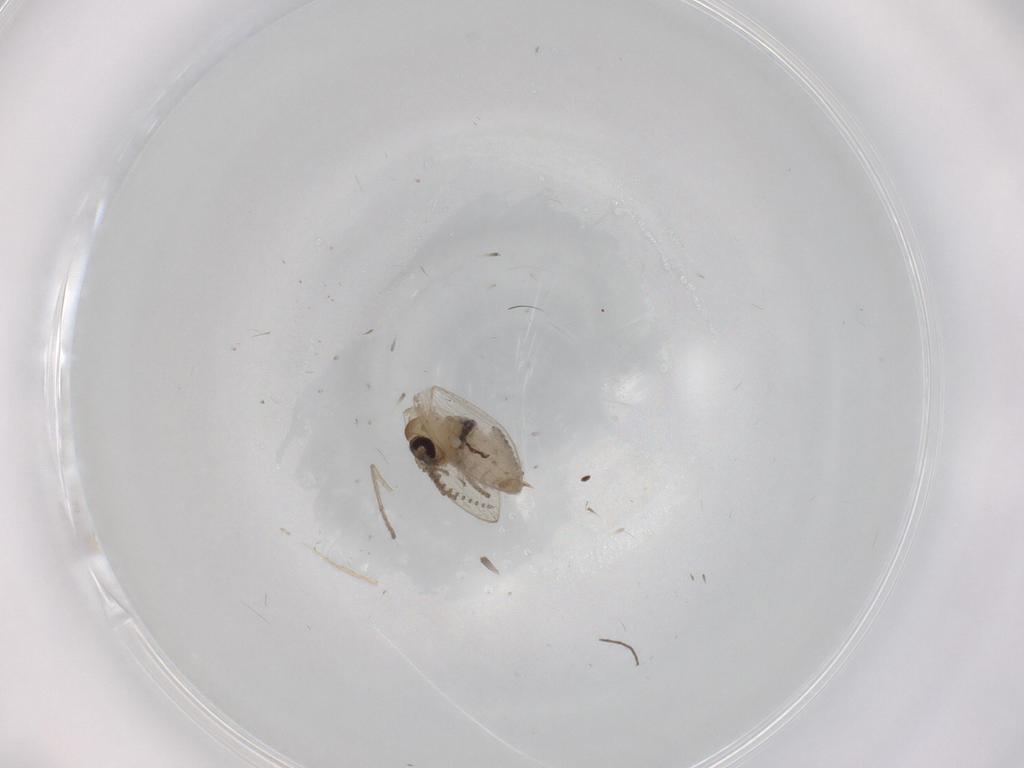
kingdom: Animalia
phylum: Arthropoda
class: Insecta
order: Diptera
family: Psychodidae
